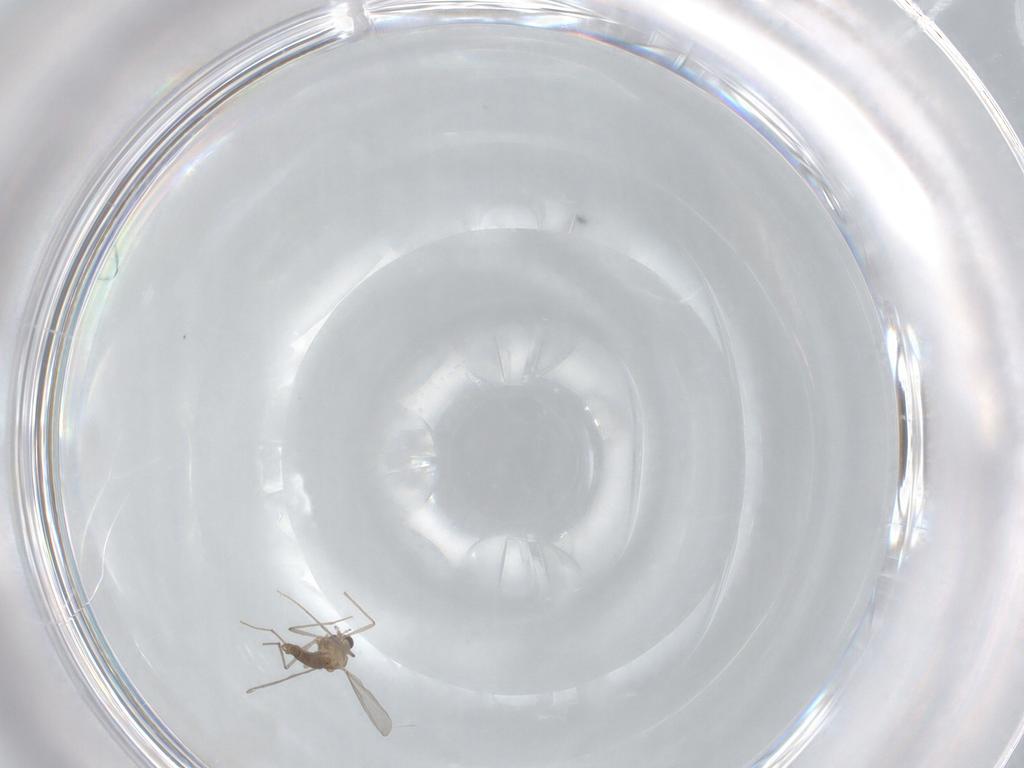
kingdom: Animalia
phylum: Arthropoda
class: Insecta
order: Diptera
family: Chironomidae
